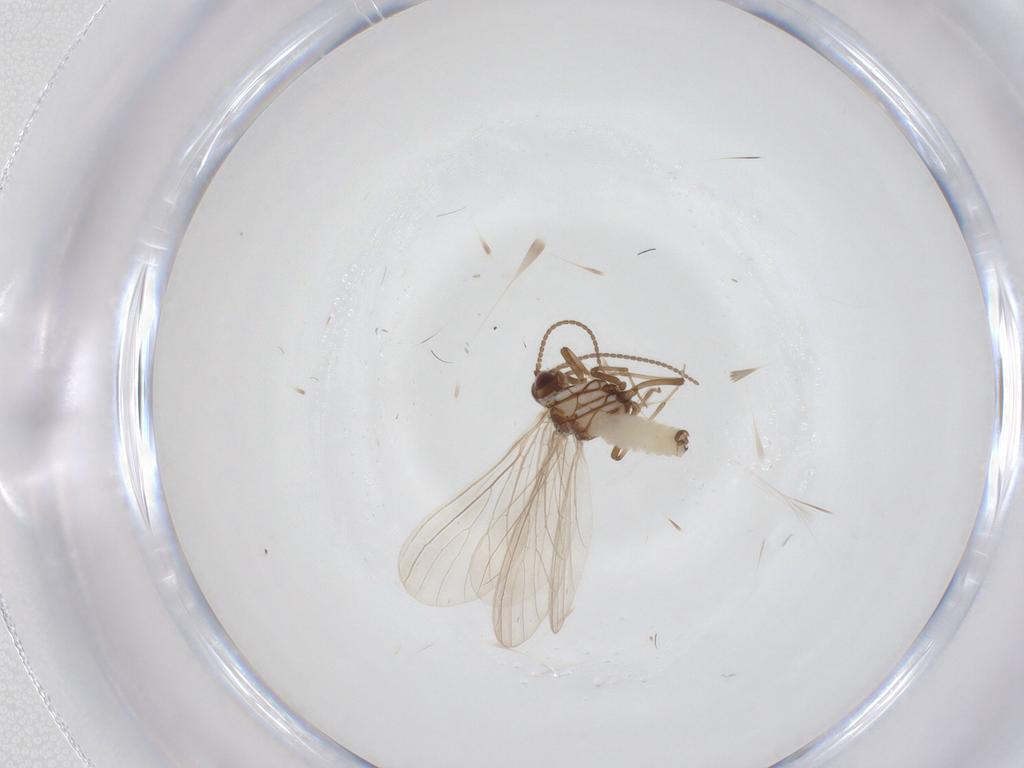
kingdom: Animalia
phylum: Arthropoda
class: Insecta
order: Neuroptera
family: Coniopterygidae
